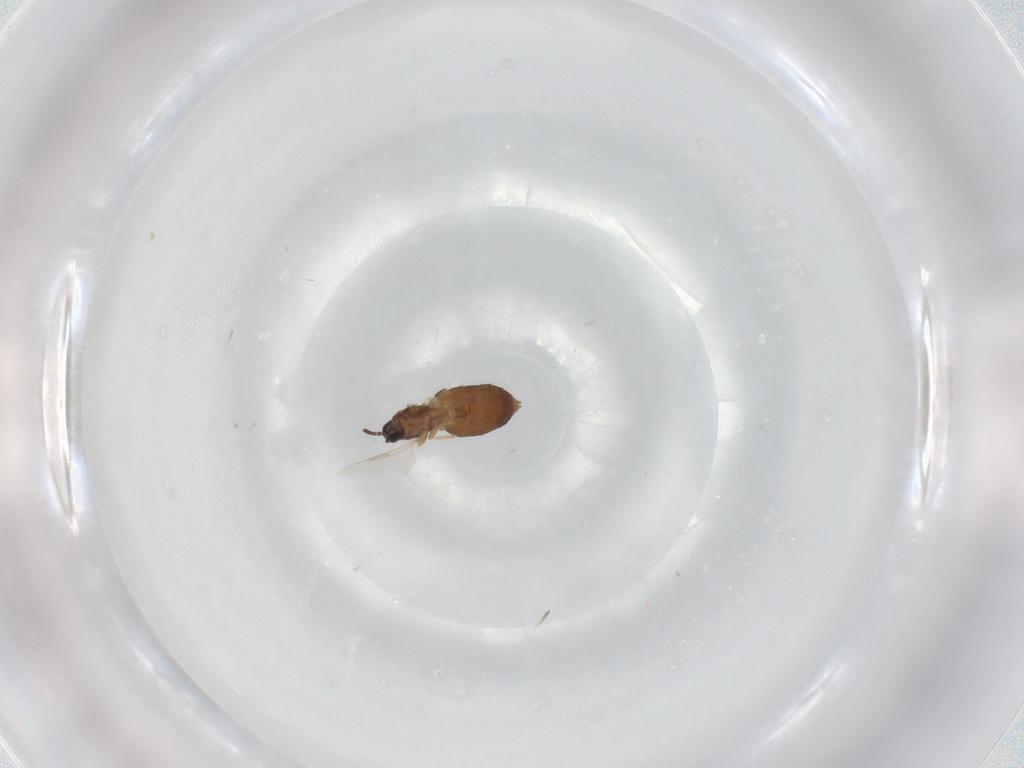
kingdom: Animalia
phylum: Arthropoda
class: Insecta
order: Diptera
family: Scatopsidae
